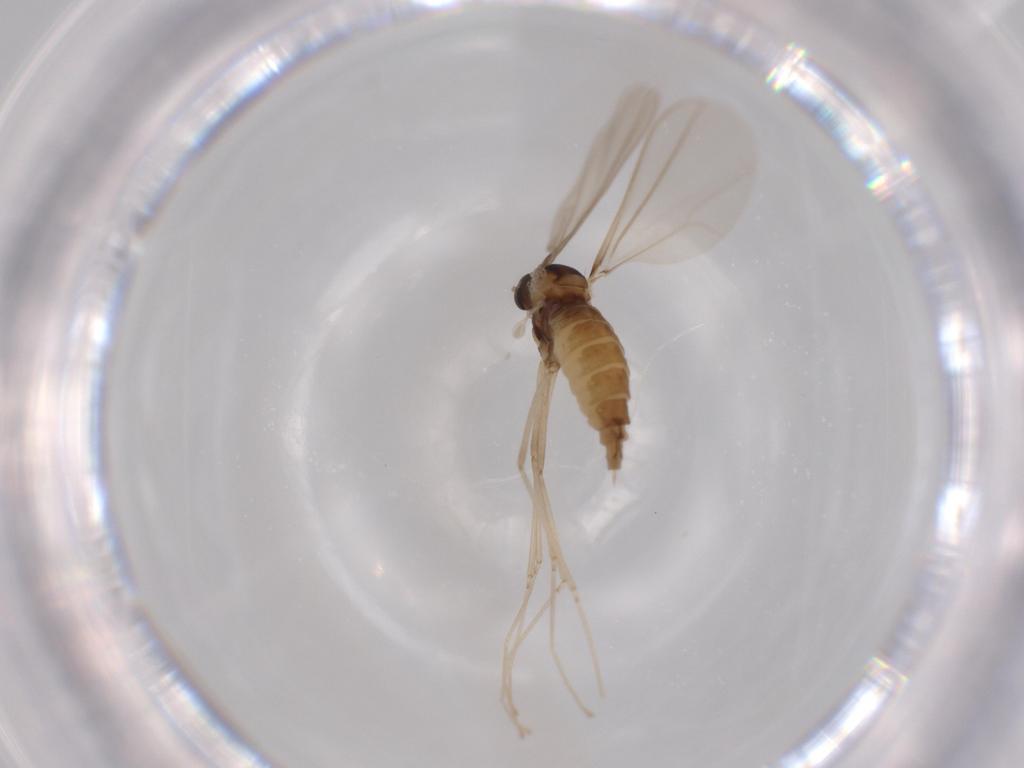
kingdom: Animalia
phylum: Arthropoda
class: Insecta
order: Diptera
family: Cecidomyiidae
